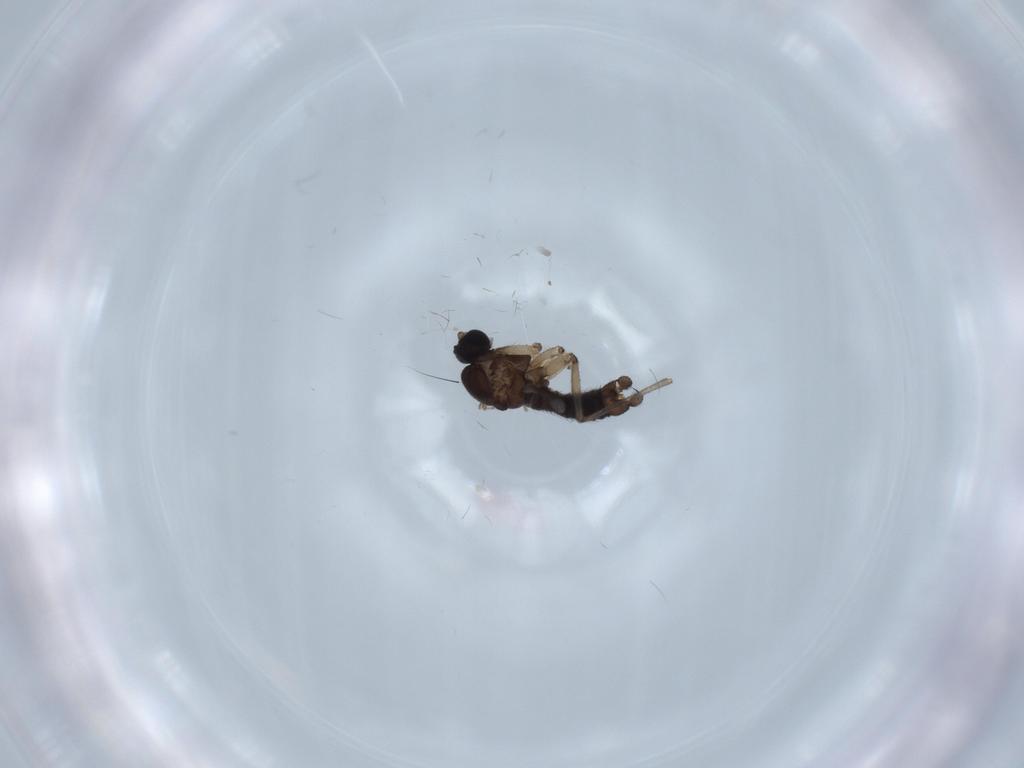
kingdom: Animalia
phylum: Arthropoda
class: Insecta
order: Diptera
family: Sciaridae
